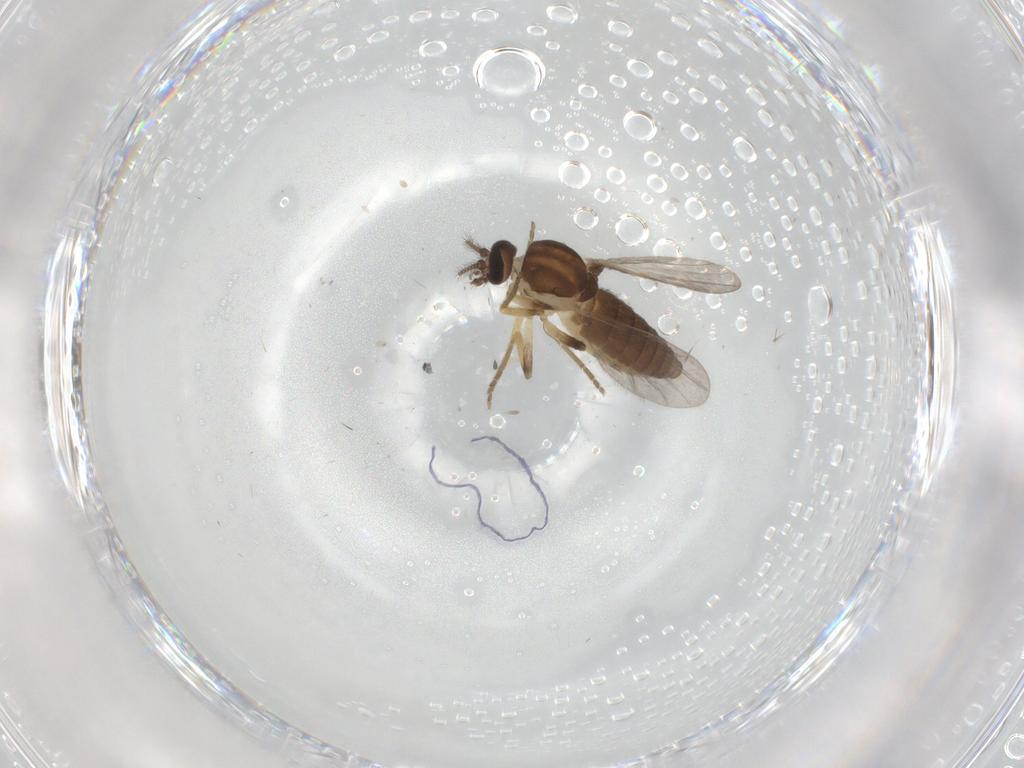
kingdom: Animalia
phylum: Arthropoda
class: Insecta
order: Diptera
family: Ceratopogonidae
